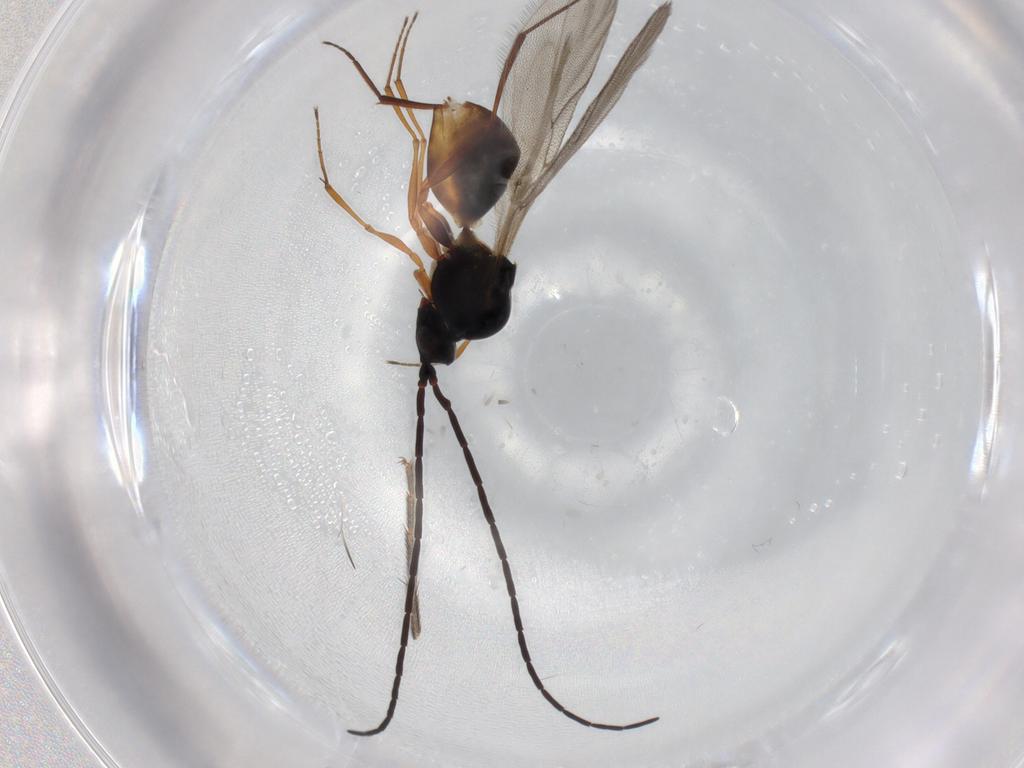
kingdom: Animalia
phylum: Arthropoda
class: Insecta
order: Hymenoptera
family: Figitidae
